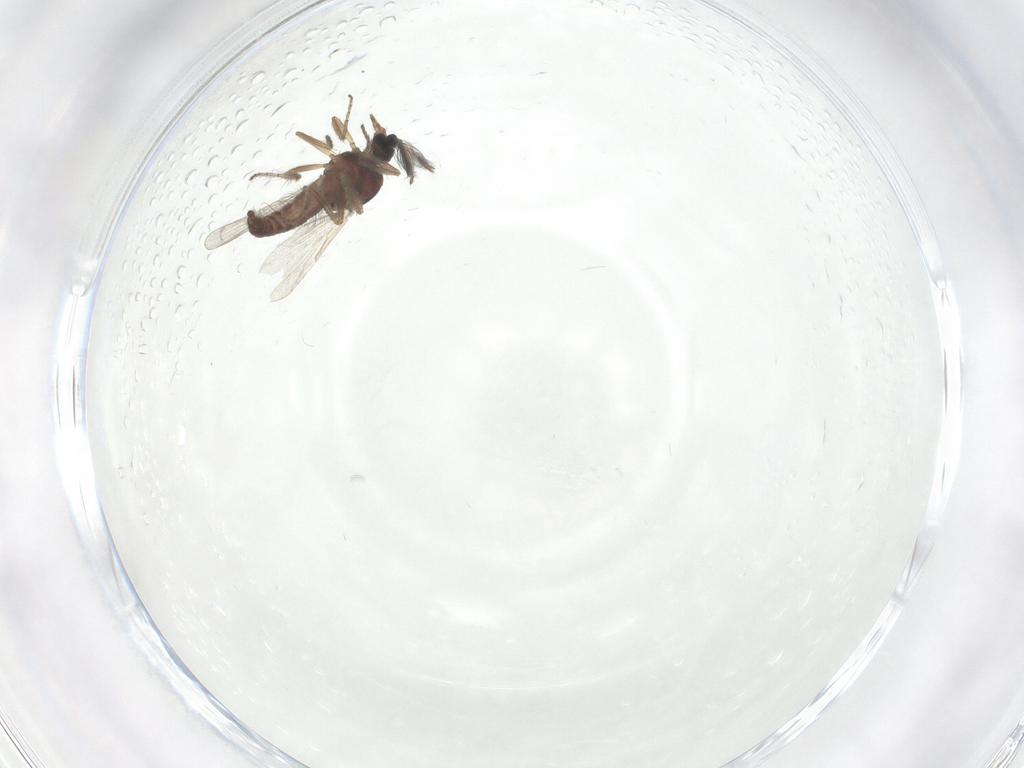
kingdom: Animalia
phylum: Arthropoda
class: Insecta
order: Diptera
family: Ceratopogonidae
